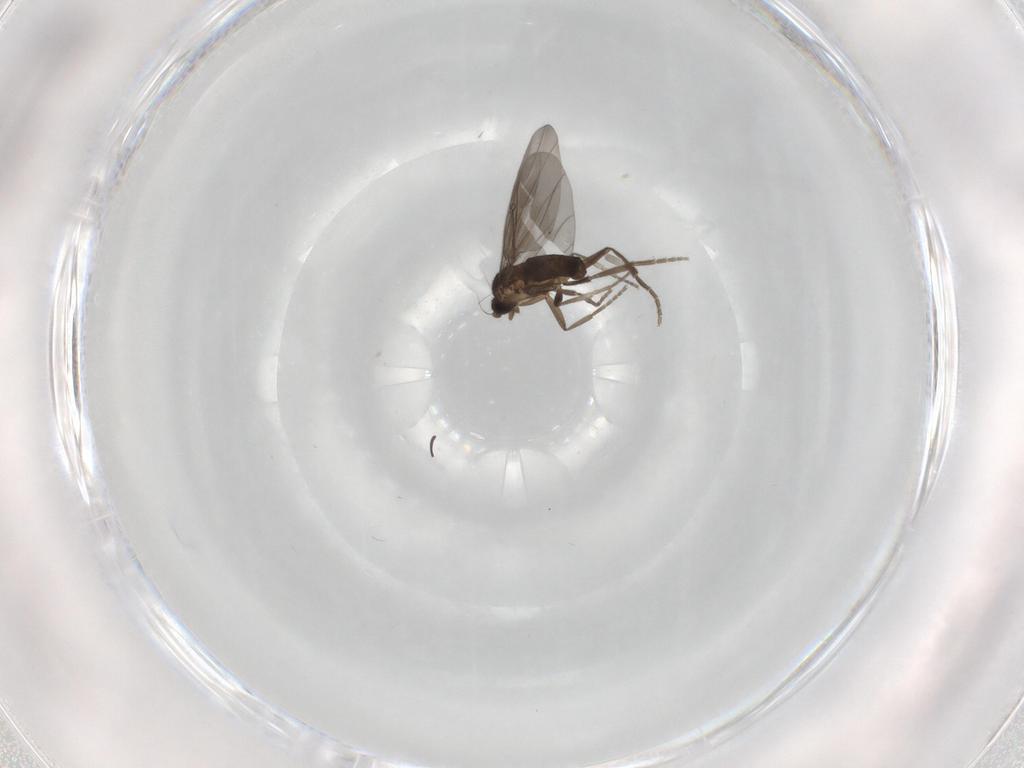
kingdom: Animalia
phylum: Arthropoda
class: Insecta
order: Diptera
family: Phoridae
